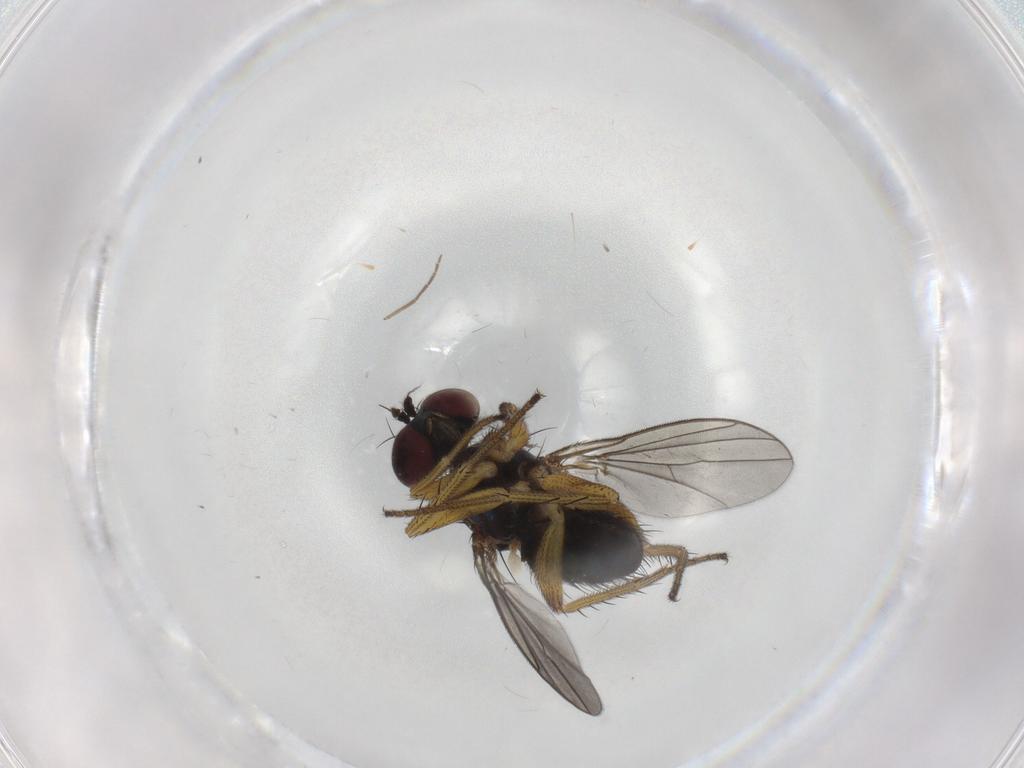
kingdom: Animalia
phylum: Arthropoda
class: Insecta
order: Diptera
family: Dolichopodidae
